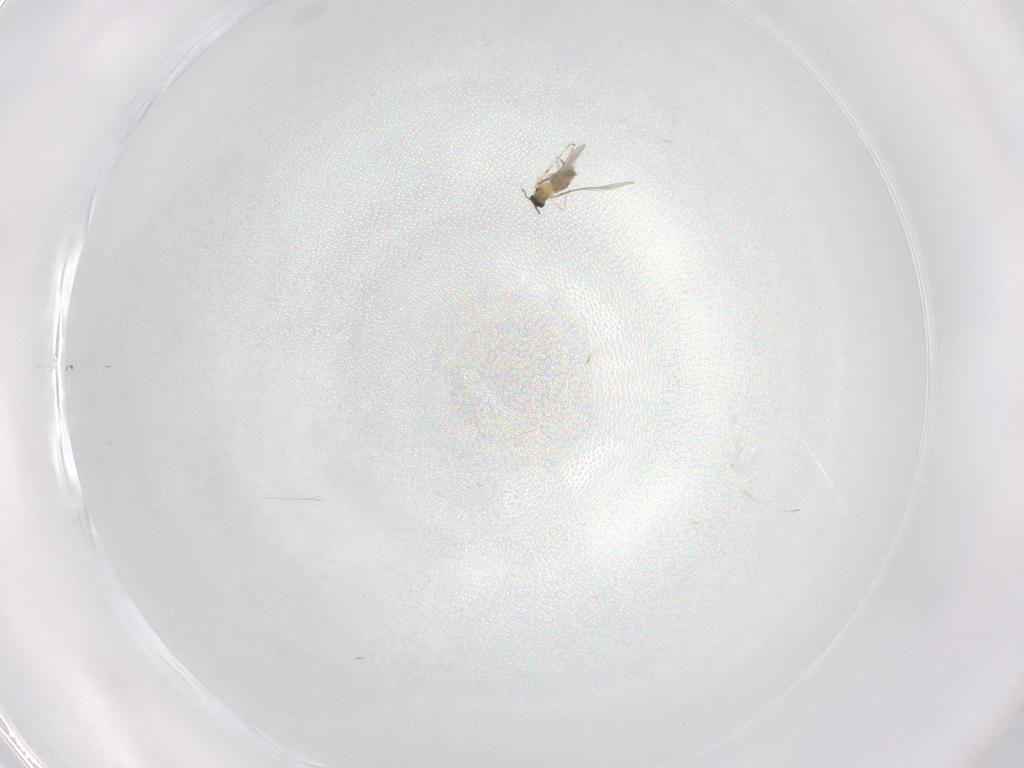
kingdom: Animalia
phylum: Arthropoda
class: Insecta
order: Diptera
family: Cecidomyiidae
